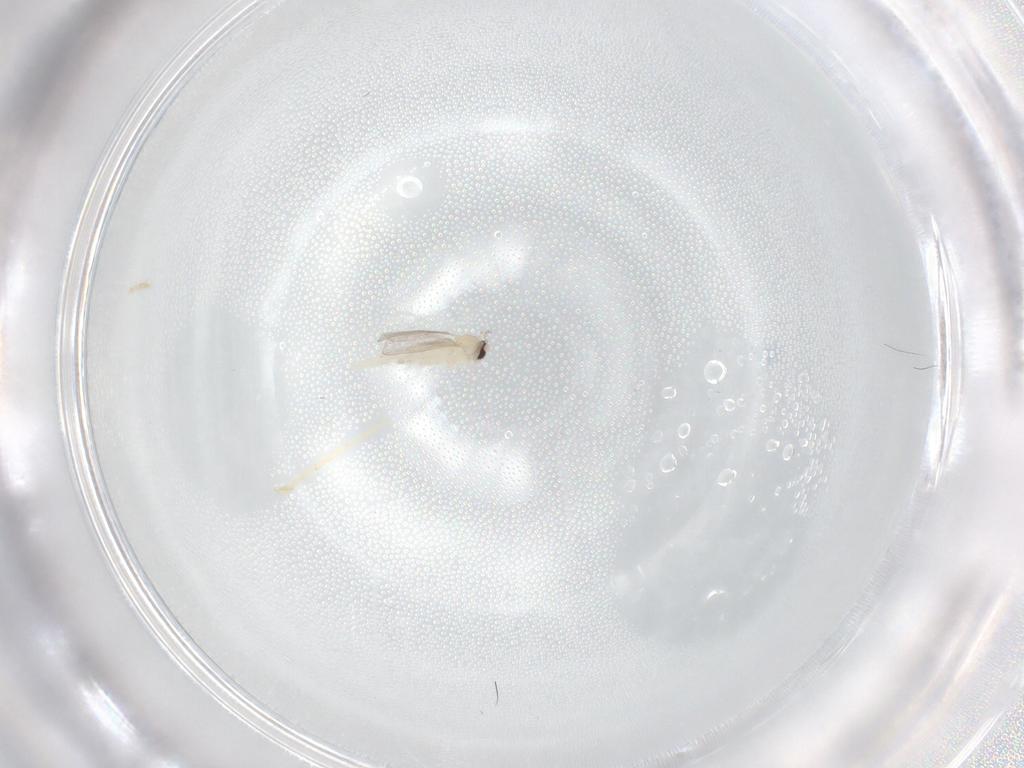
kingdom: Animalia
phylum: Arthropoda
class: Insecta
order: Diptera
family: Cecidomyiidae
